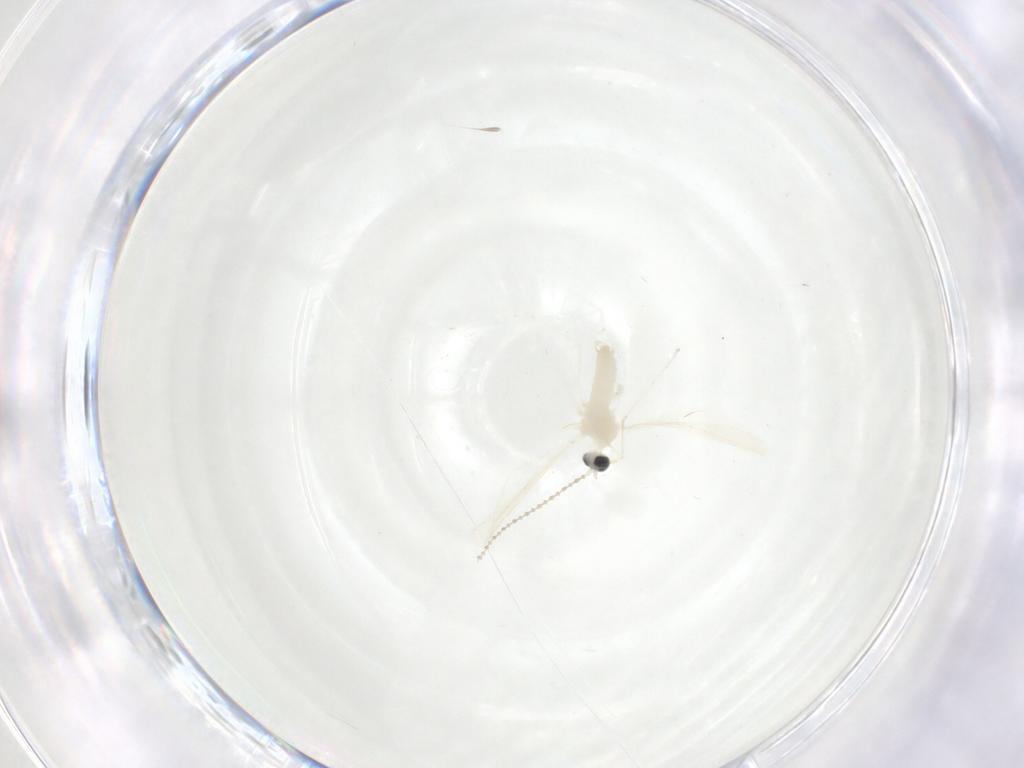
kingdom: Animalia
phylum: Arthropoda
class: Insecta
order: Diptera
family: Cecidomyiidae
